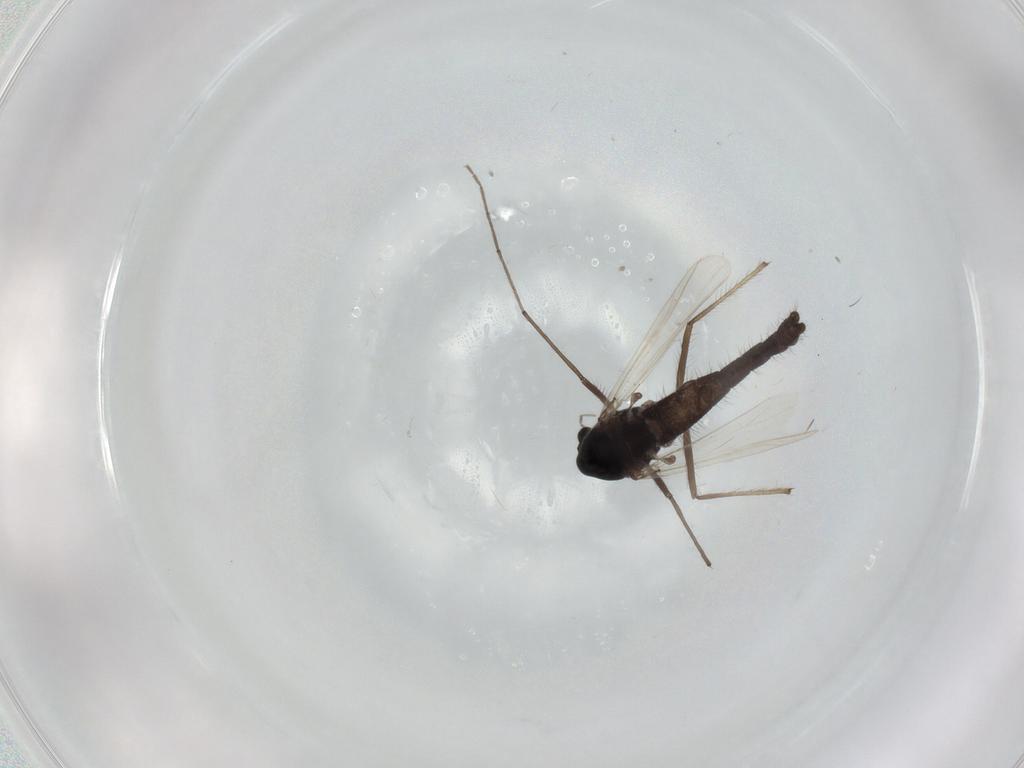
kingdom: Animalia
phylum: Arthropoda
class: Insecta
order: Diptera
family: Chironomidae
